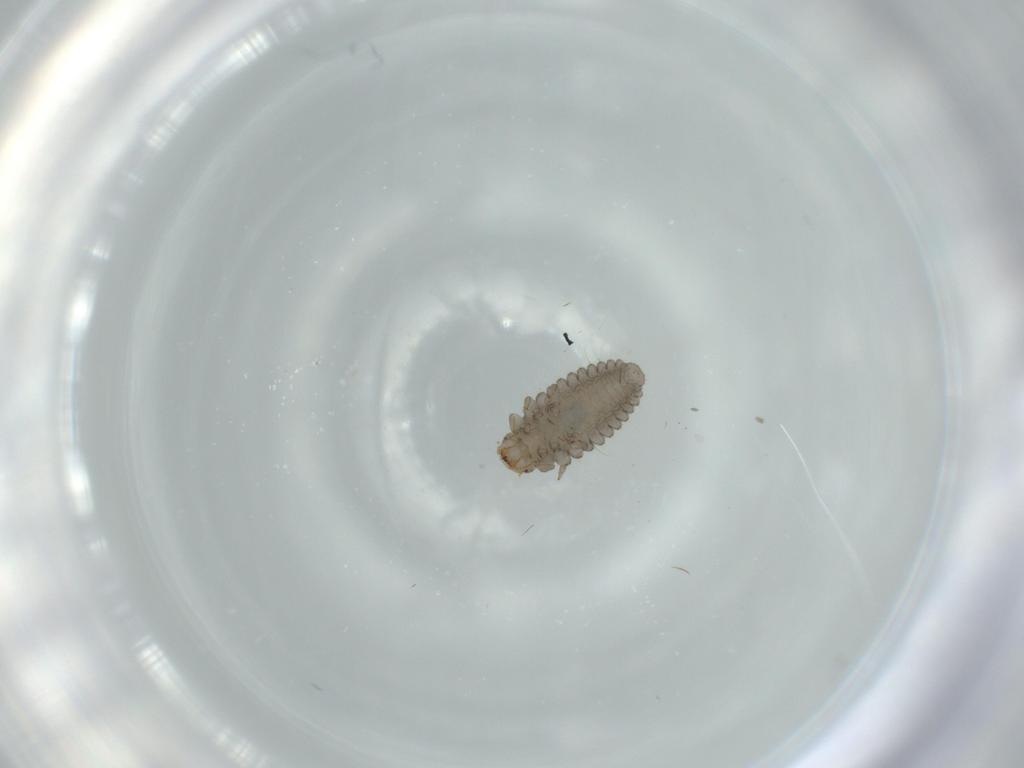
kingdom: Animalia
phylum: Arthropoda
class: Insecta
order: Coleoptera
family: Coccinellidae
